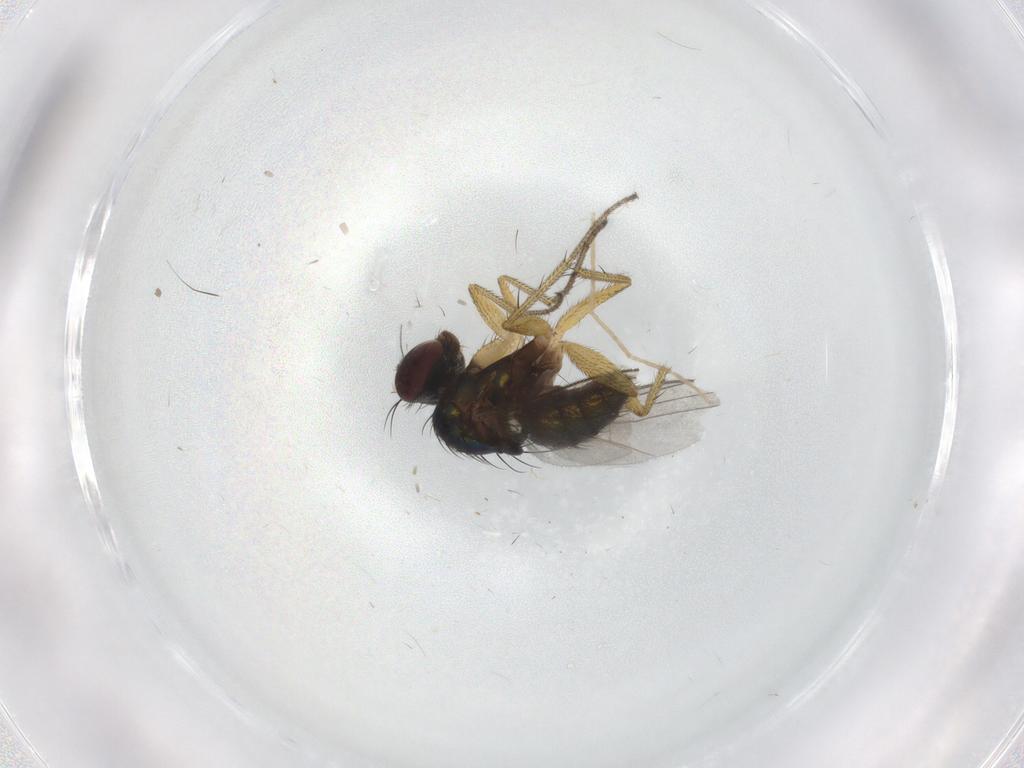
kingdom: Animalia
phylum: Arthropoda
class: Insecta
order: Diptera
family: Dolichopodidae
